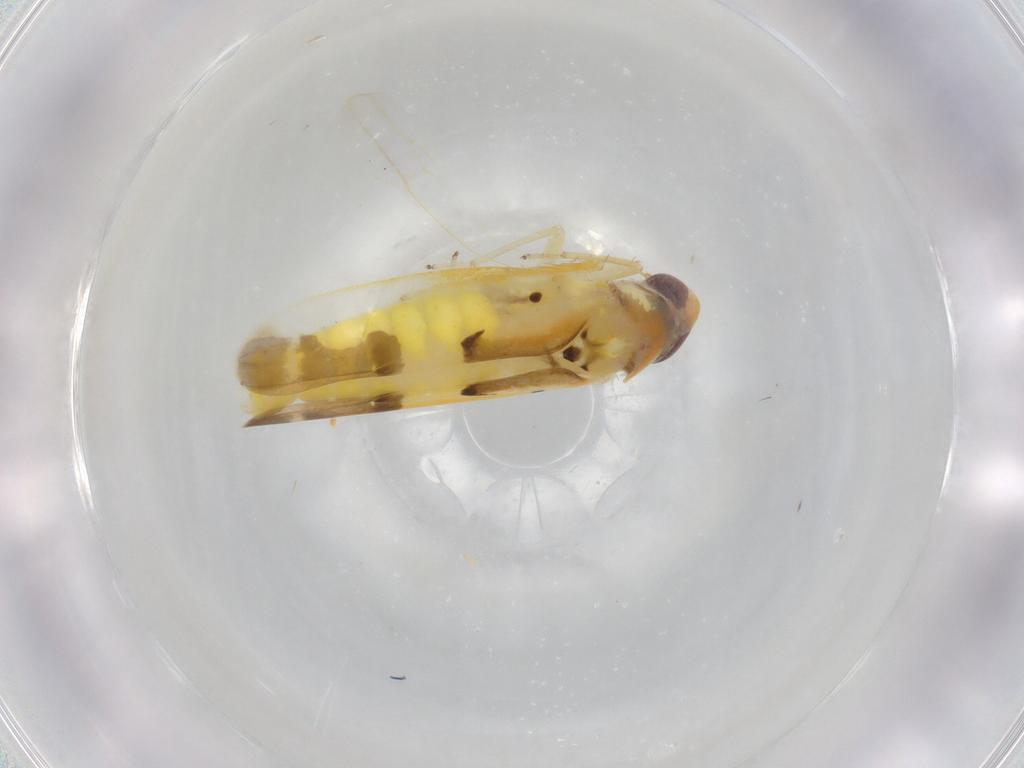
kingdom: Animalia
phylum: Arthropoda
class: Insecta
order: Hemiptera
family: Cicadellidae
